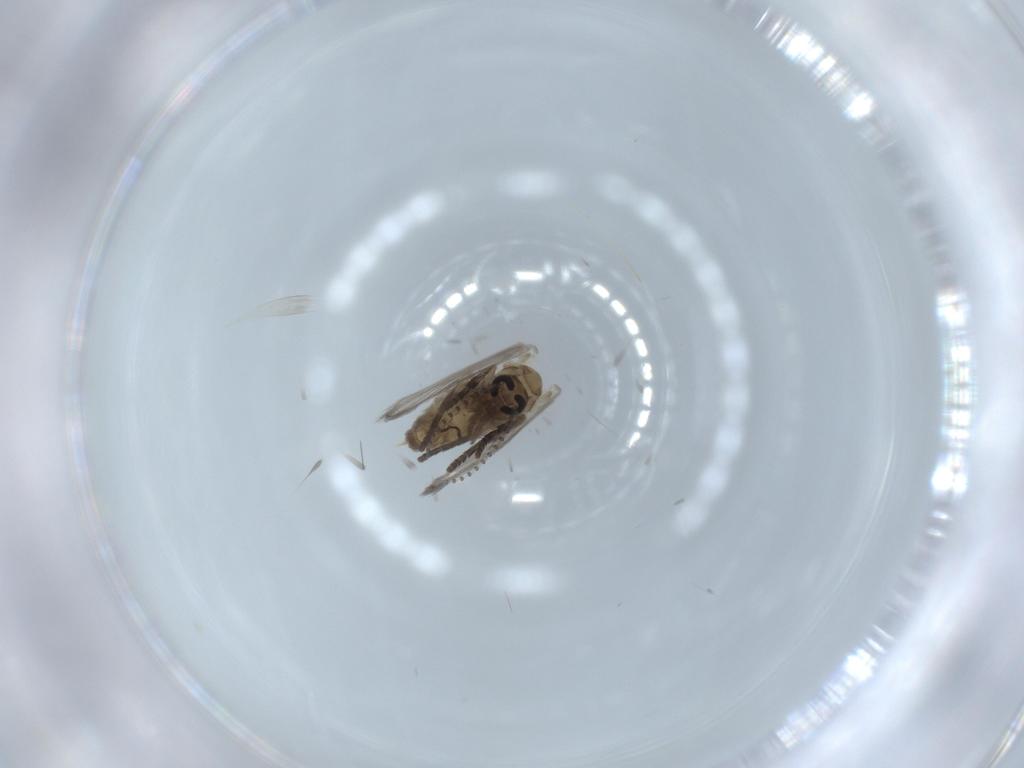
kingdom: Animalia
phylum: Arthropoda
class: Insecta
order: Diptera
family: Psychodidae
